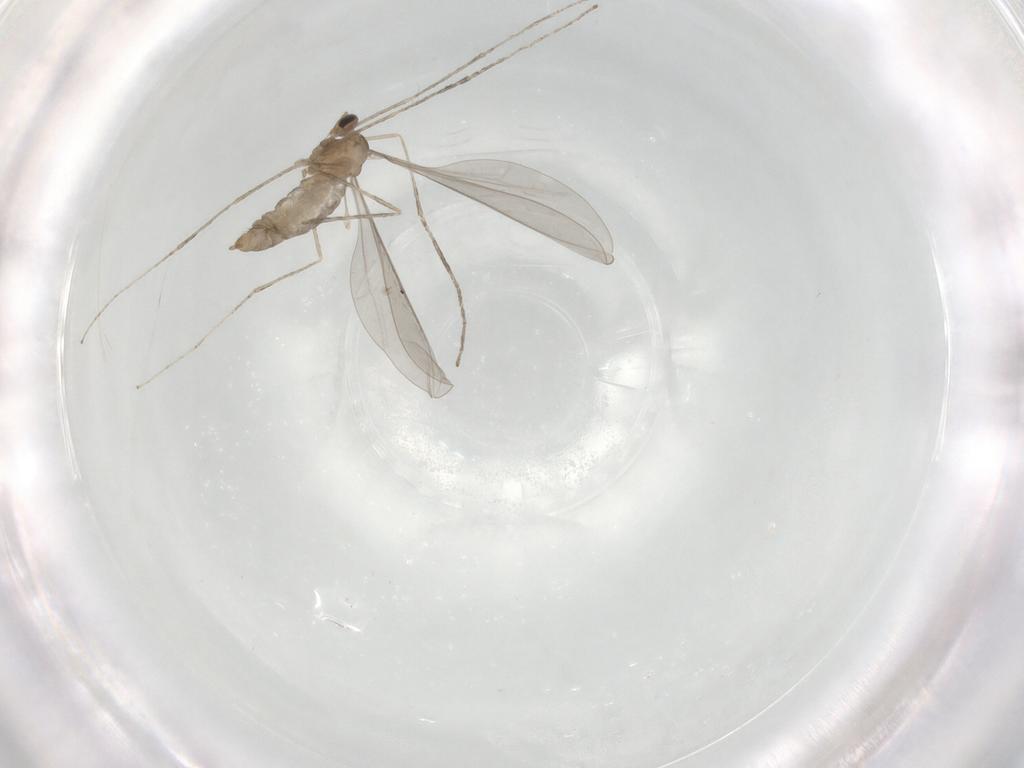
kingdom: Animalia
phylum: Arthropoda
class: Insecta
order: Diptera
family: Cecidomyiidae
